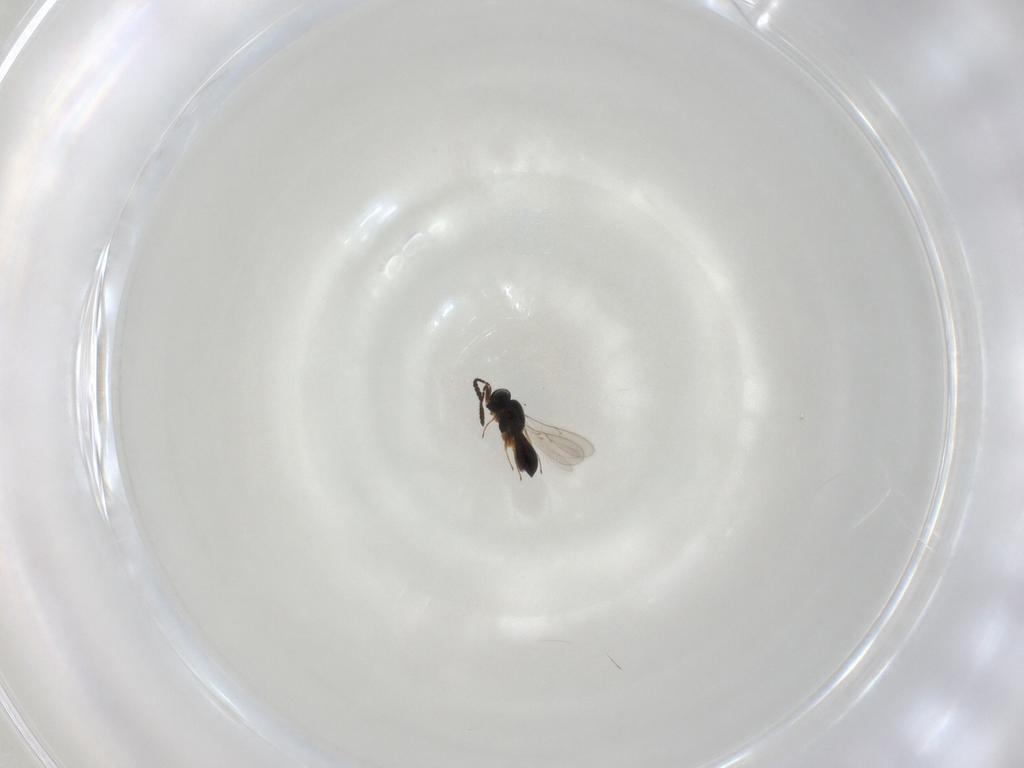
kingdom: Animalia
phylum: Arthropoda
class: Insecta
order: Hymenoptera
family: Scelionidae
